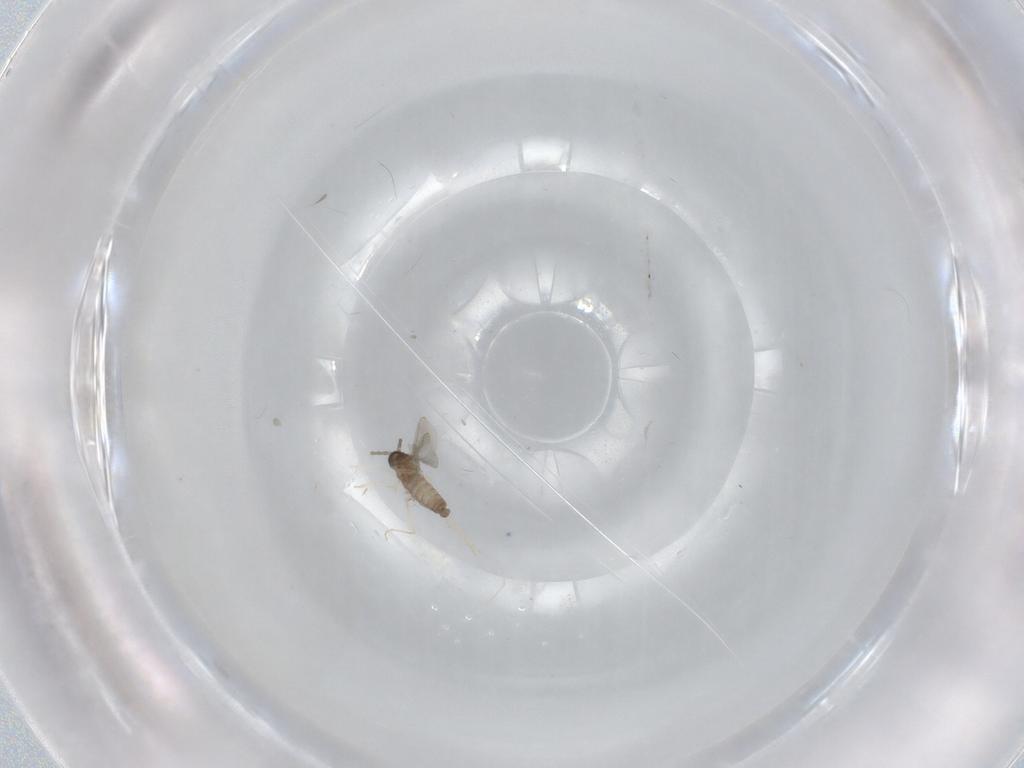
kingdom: Animalia
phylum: Arthropoda
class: Insecta
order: Diptera
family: Cecidomyiidae
